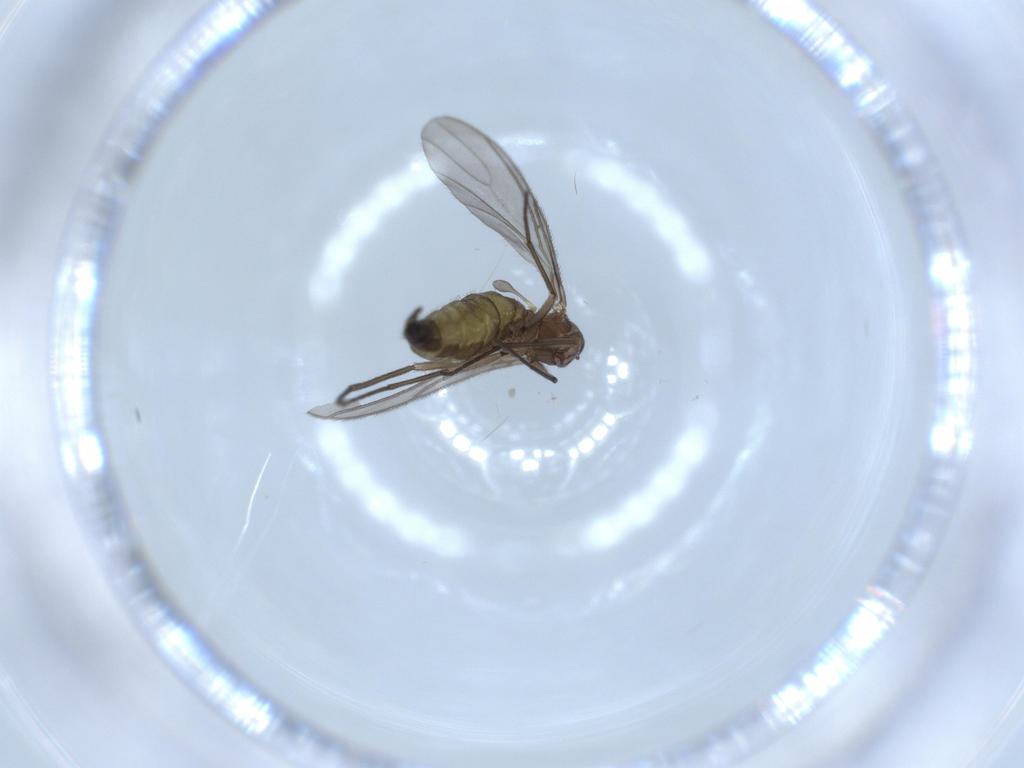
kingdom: Animalia
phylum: Arthropoda
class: Insecta
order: Diptera
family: Sciaridae
